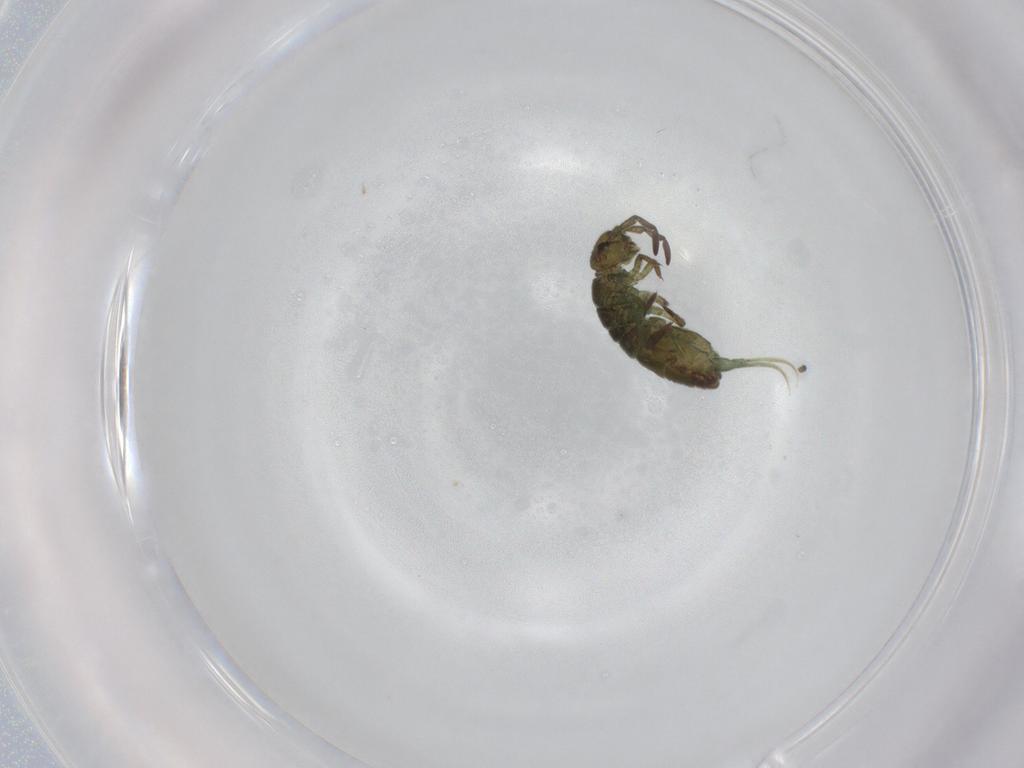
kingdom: Animalia
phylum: Arthropoda
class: Collembola
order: Entomobryomorpha
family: Isotomidae
